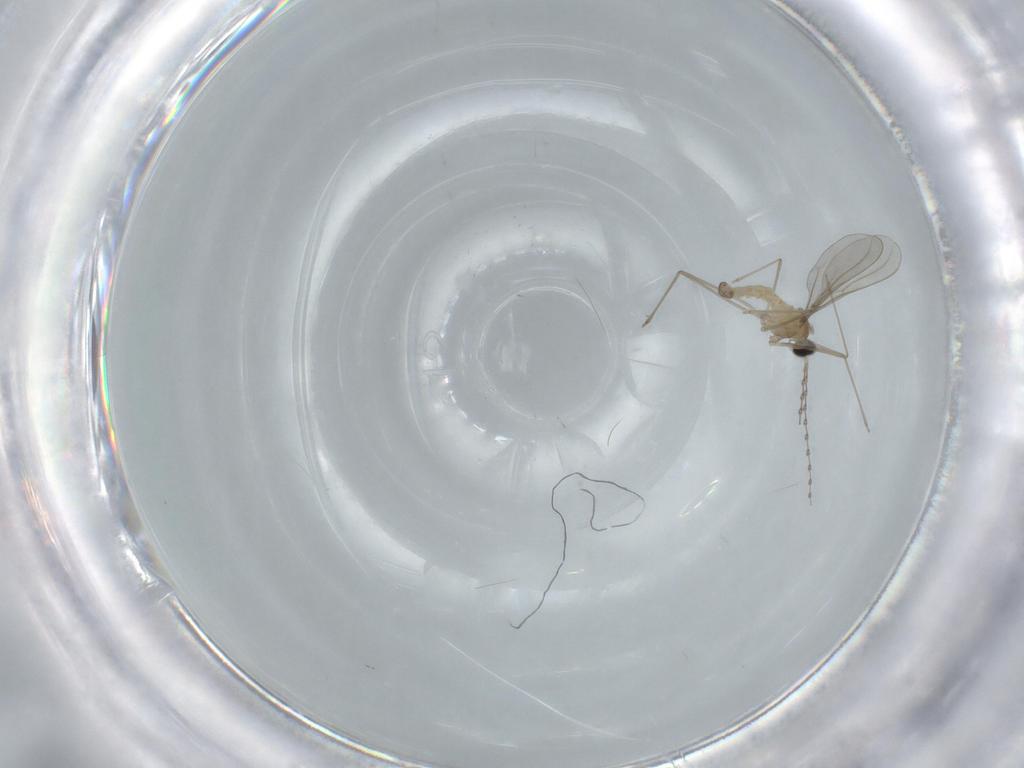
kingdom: Animalia
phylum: Arthropoda
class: Insecta
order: Diptera
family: Cecidomyiidae
